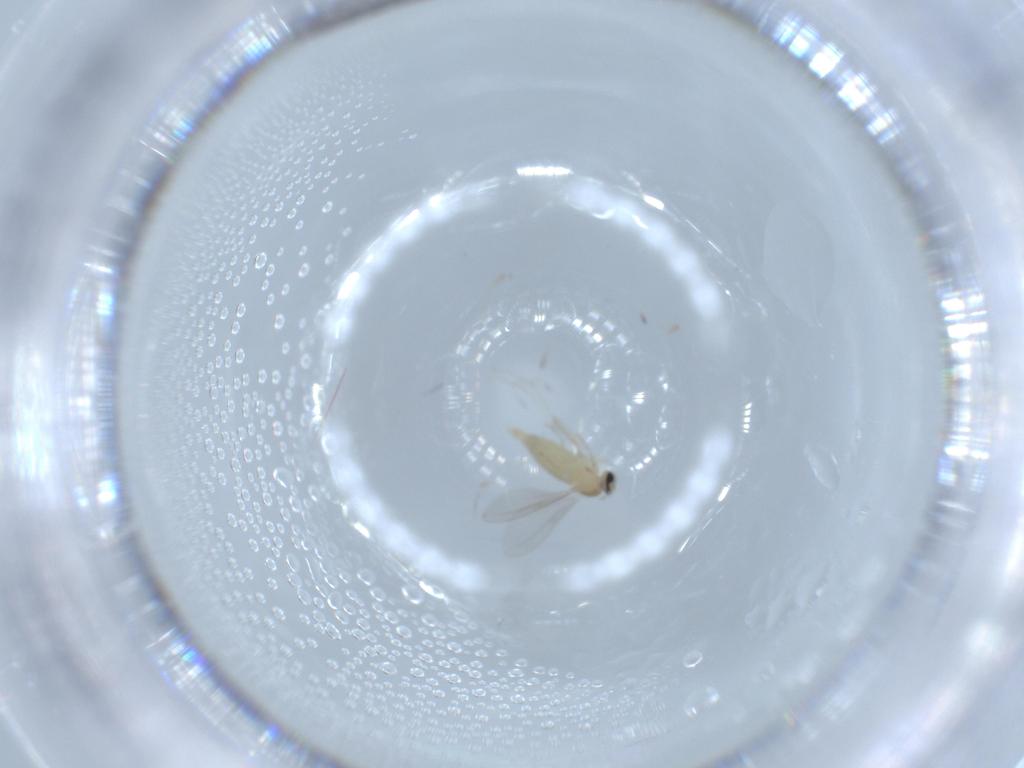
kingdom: Animalia
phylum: Arthropoda
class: Insecta
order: Diptera
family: Cecidomyiidae
